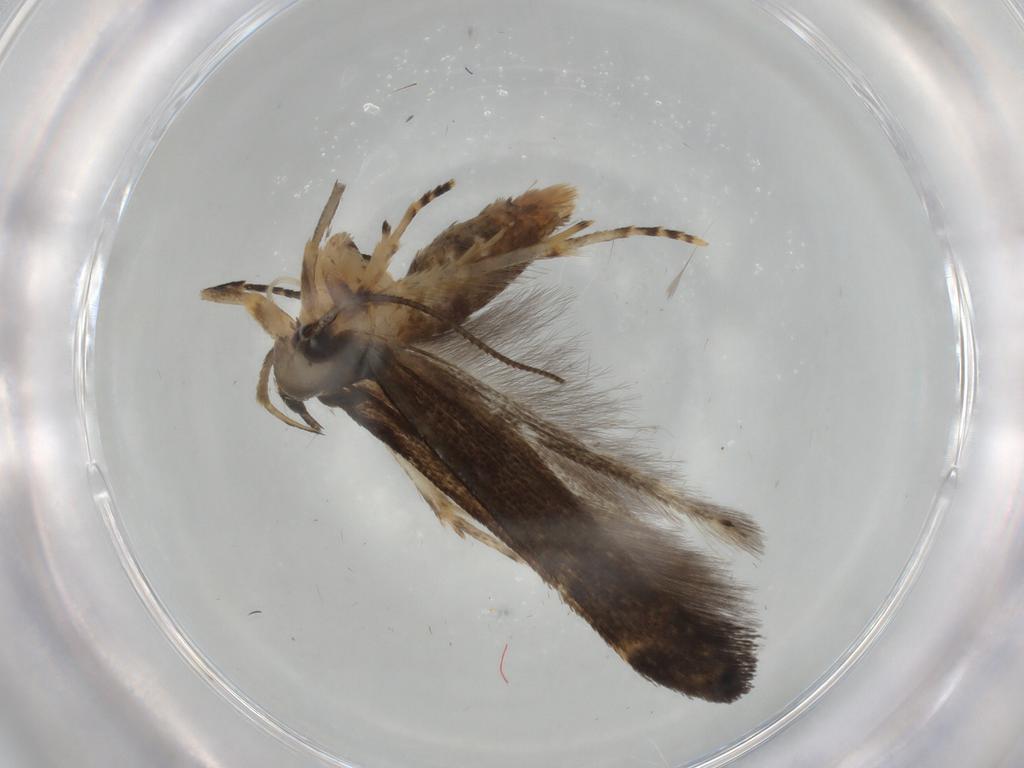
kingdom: Animalia
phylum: Arthropoda
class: Insecta
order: Lepidoptera
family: Cosmopterigidae
